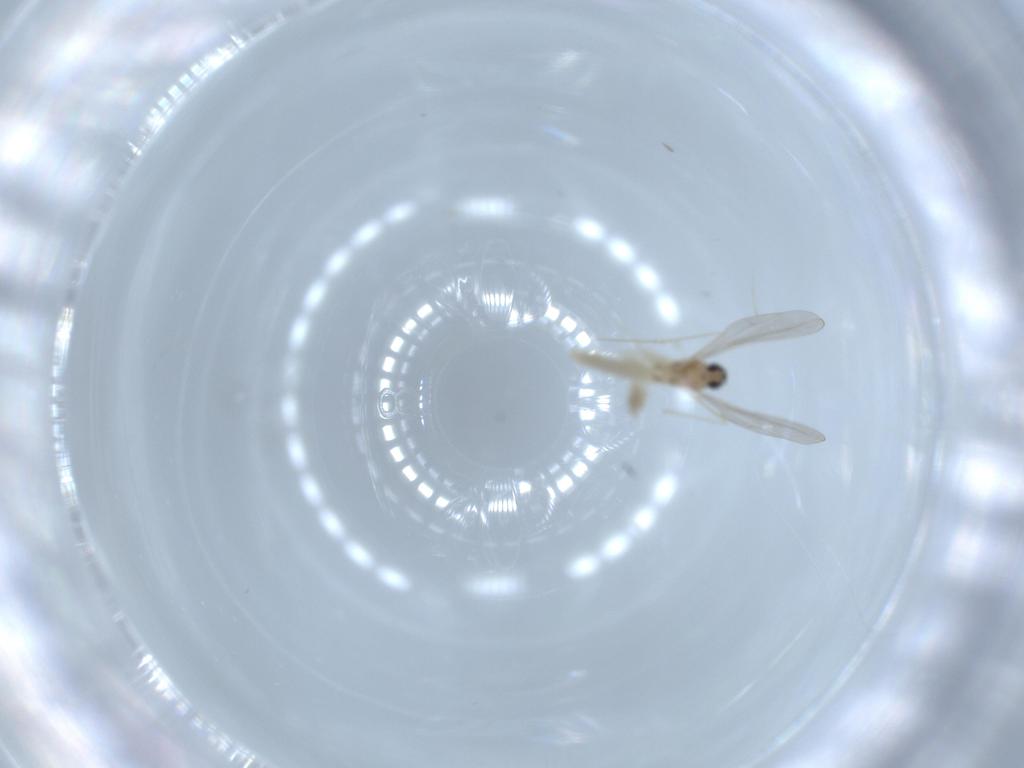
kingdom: Animalia
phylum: Arthropoda
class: Insecta
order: Diptera
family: Cecidomyiidae
